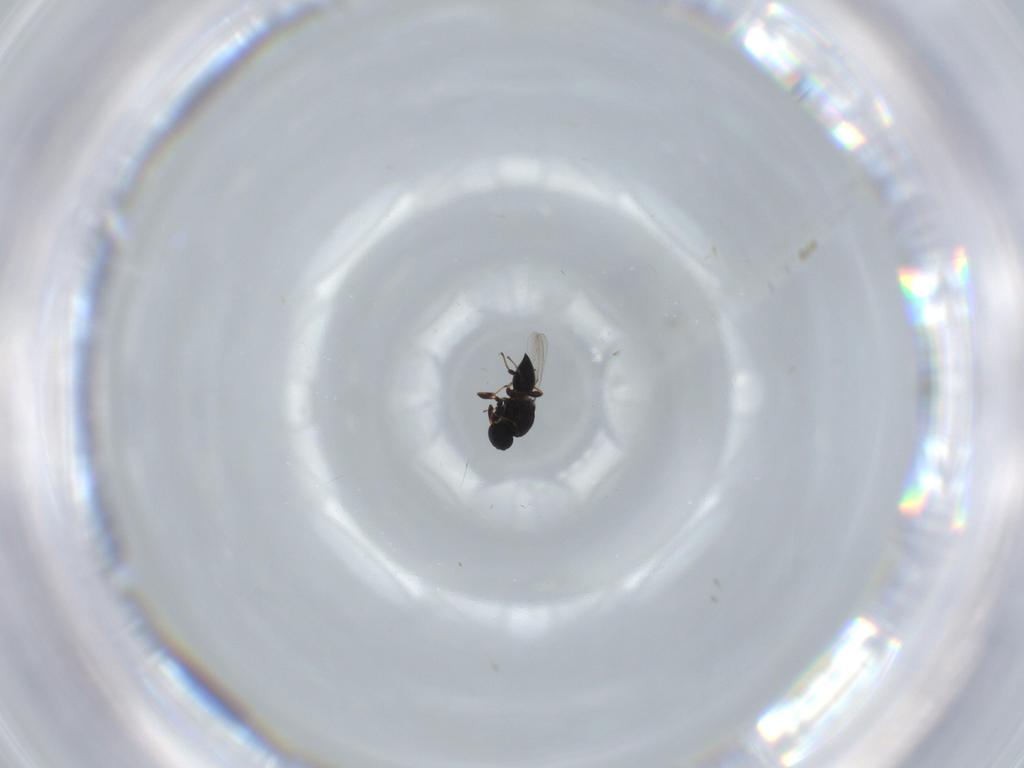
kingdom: Animalia
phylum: Arthropoda
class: Insecta
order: Hymenoptera
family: Platygastridae
